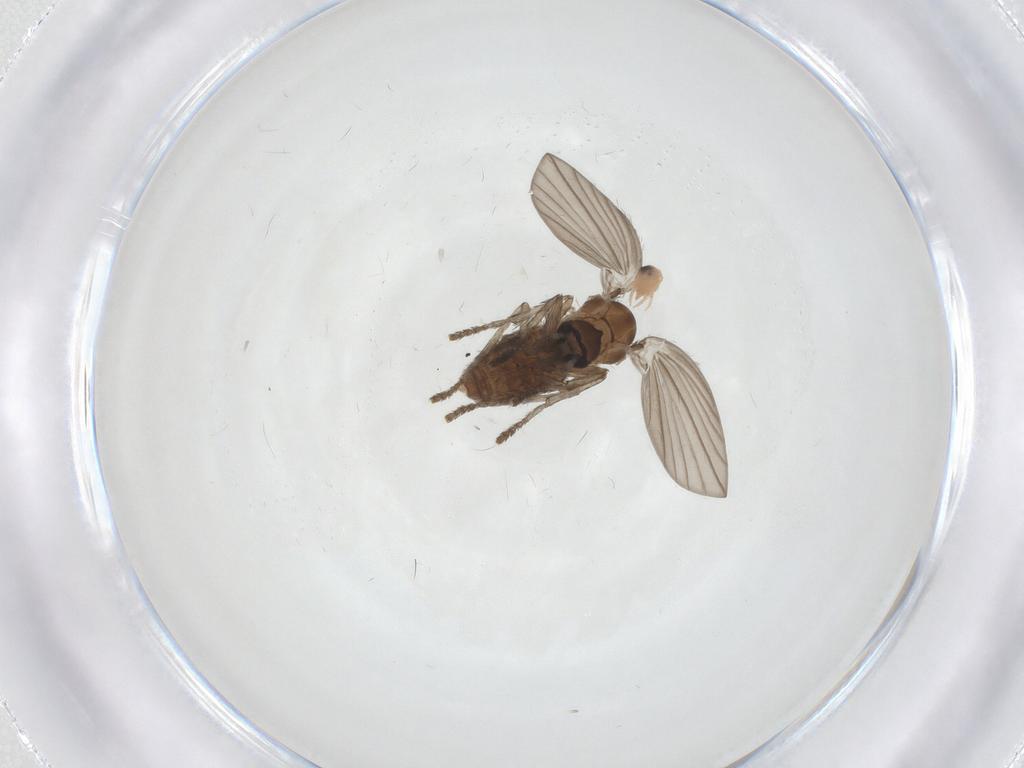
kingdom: Animalia
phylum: Arthropoda
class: Insecta
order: Diptera
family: Psychodidae
